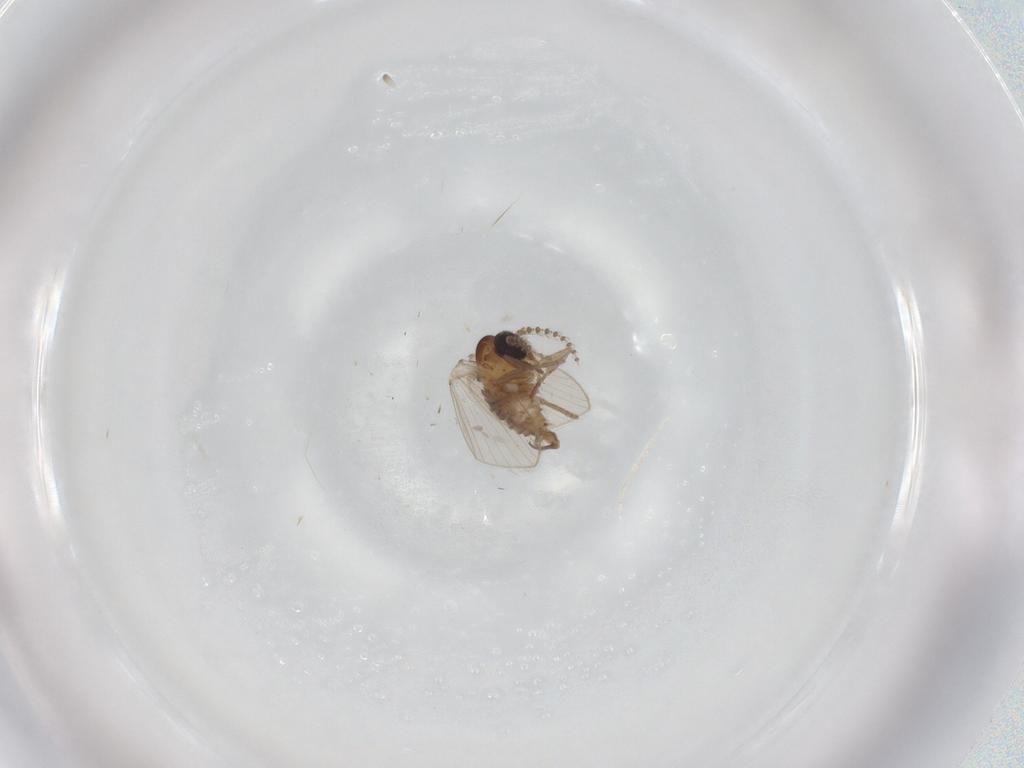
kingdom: Animalia
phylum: Arthropoda
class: Insecta
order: Diptera
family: Psychodidae
